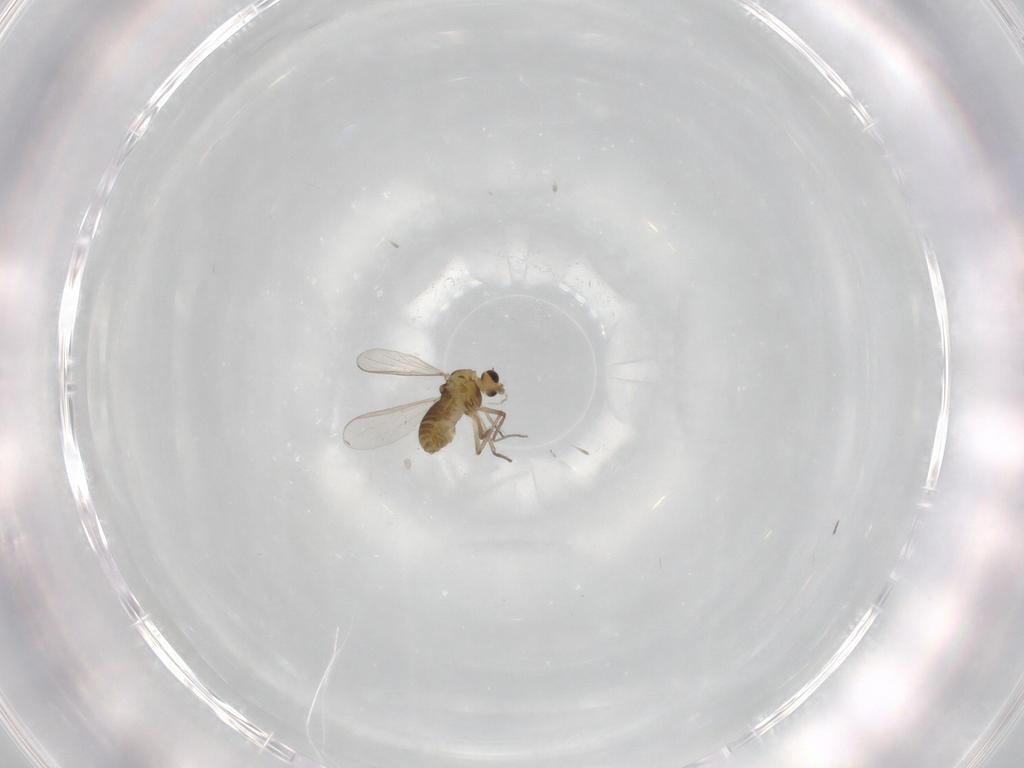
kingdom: Animalia
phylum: Arthropoda
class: Insecta
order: Diptera
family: Chironomidae
